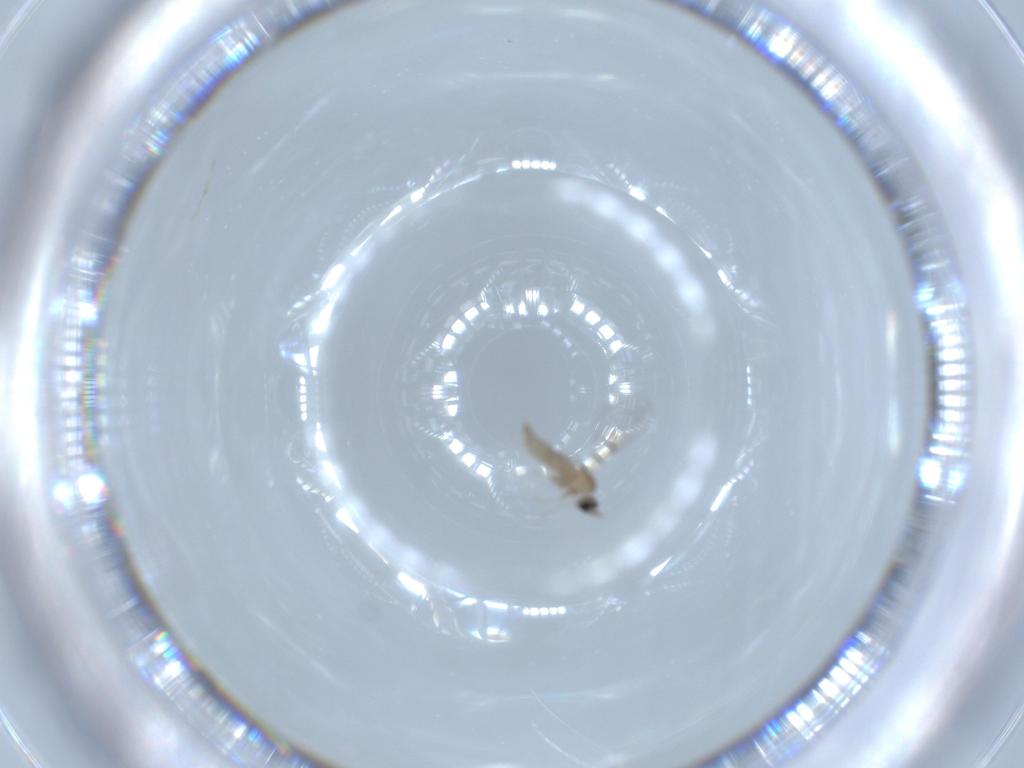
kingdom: Animalia
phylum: Arthropoda
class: Insecta
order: Diptera
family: Cecidomyiidae
